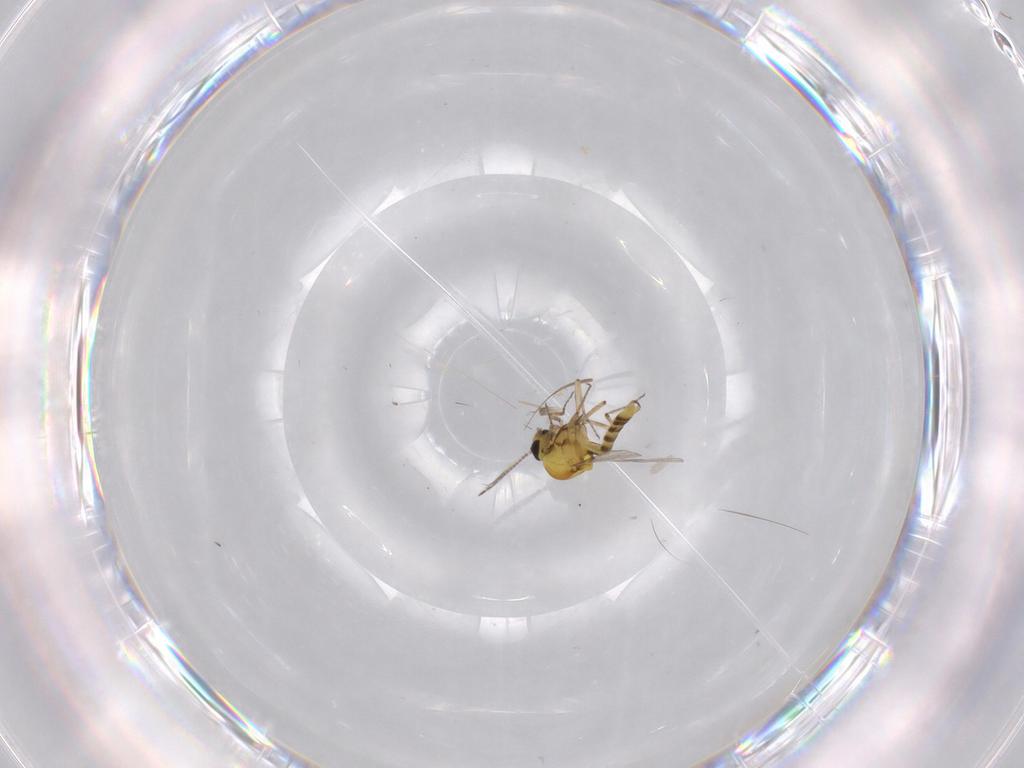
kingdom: Animalia
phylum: Arthropoda
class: Insecta
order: Diptera
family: Ceratopogonidae
